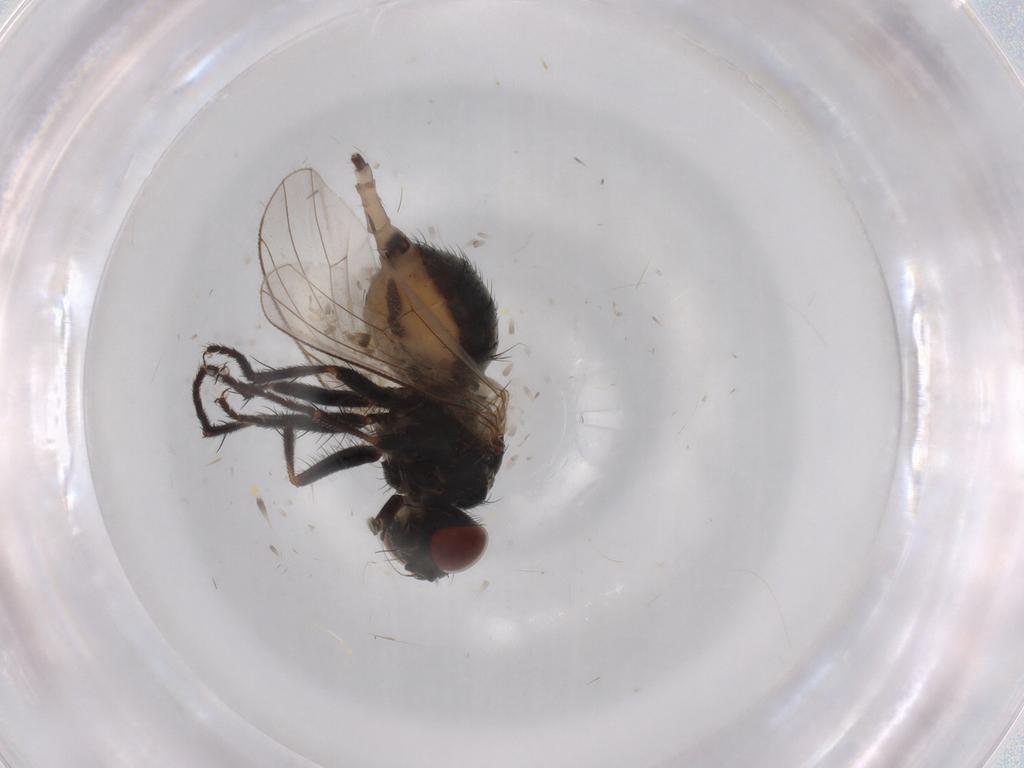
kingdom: Animalia
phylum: Arthropoda
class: Insecta
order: Diptera
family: Muscidae
